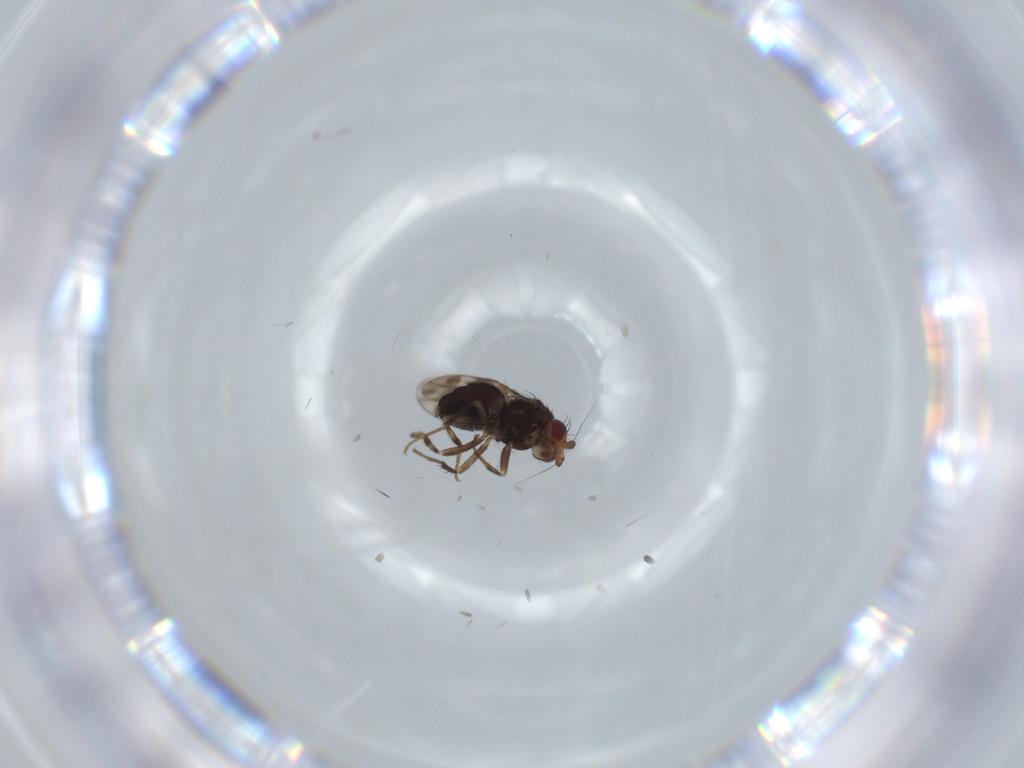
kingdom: Animalia
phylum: Arthropoda
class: Insecta
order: Diptera
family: Sphaeroceridae
